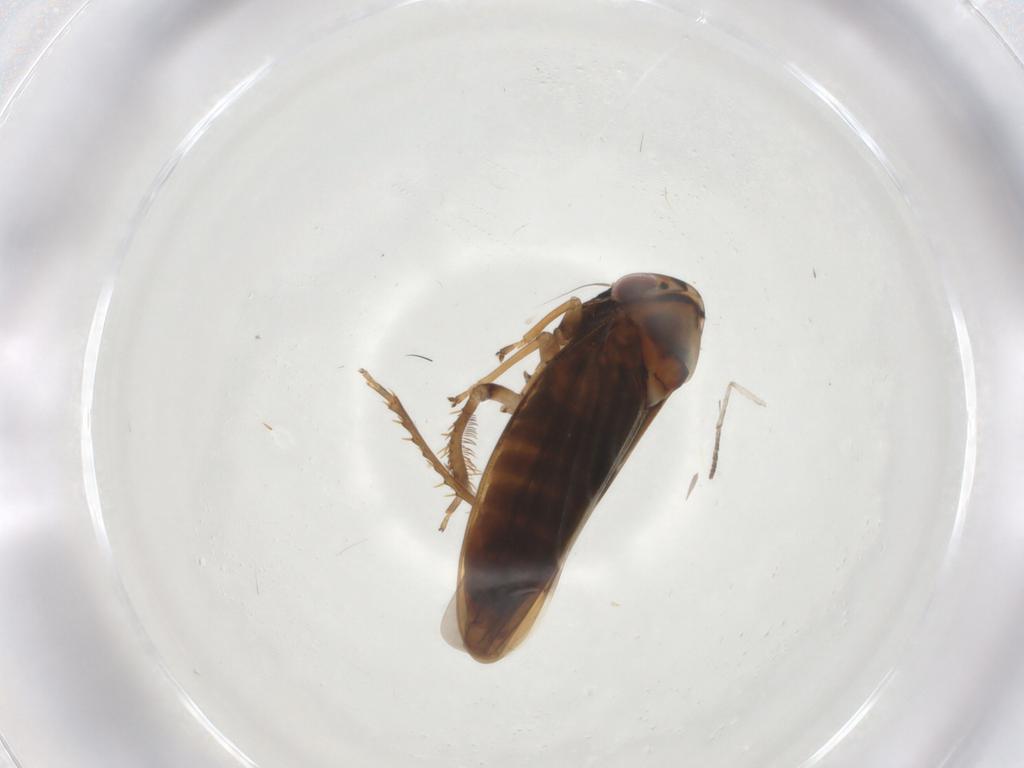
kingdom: Animalia
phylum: Arthropoda
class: Insecta
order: Hemiptera
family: Cicadellidae
